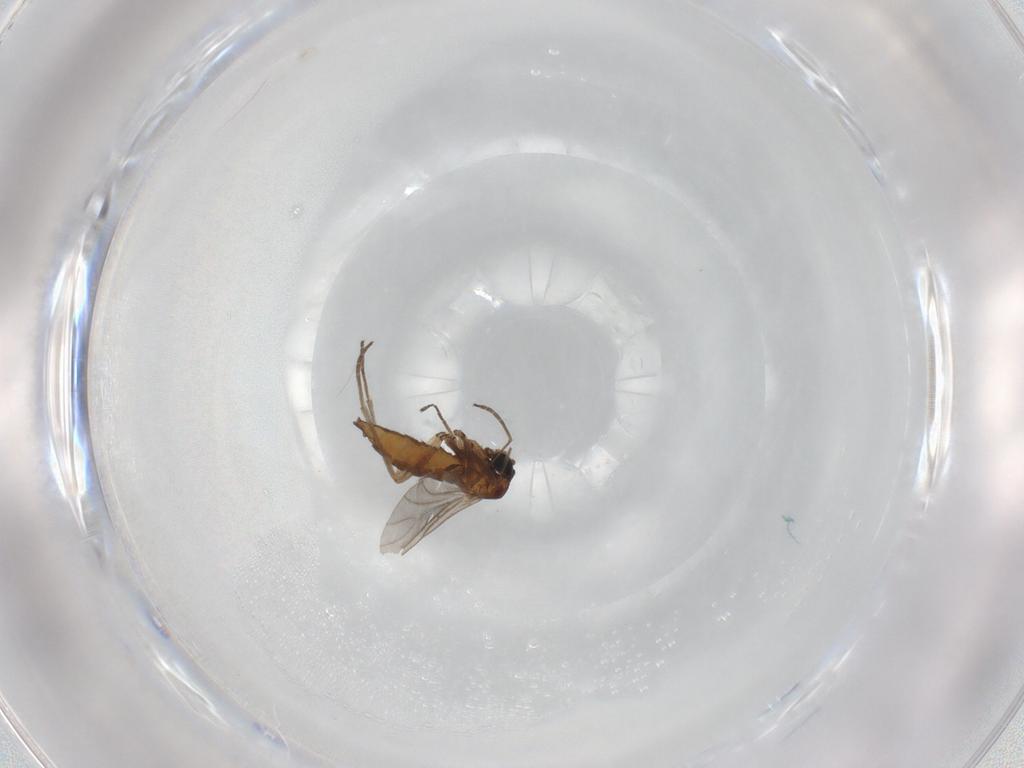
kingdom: Animalia
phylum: Arthropoda
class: Insecta
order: Diptera
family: Sciaridae
